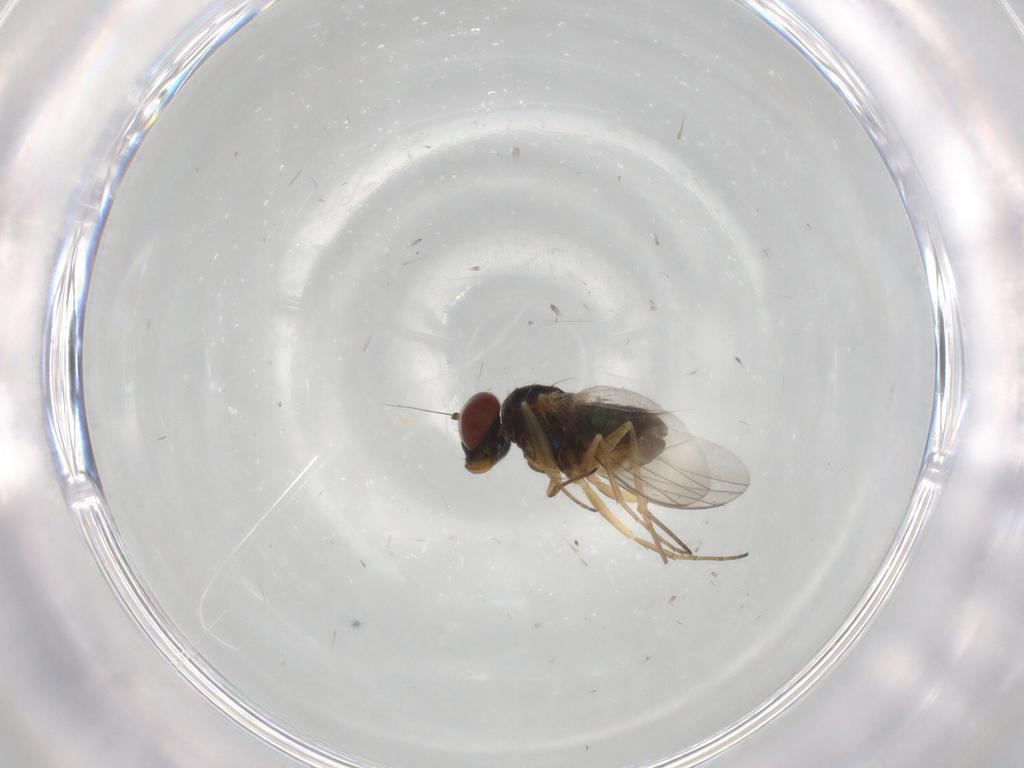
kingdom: Animalia
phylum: Arthropoda
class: Insecta
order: Diptera
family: Dolichopodidae
